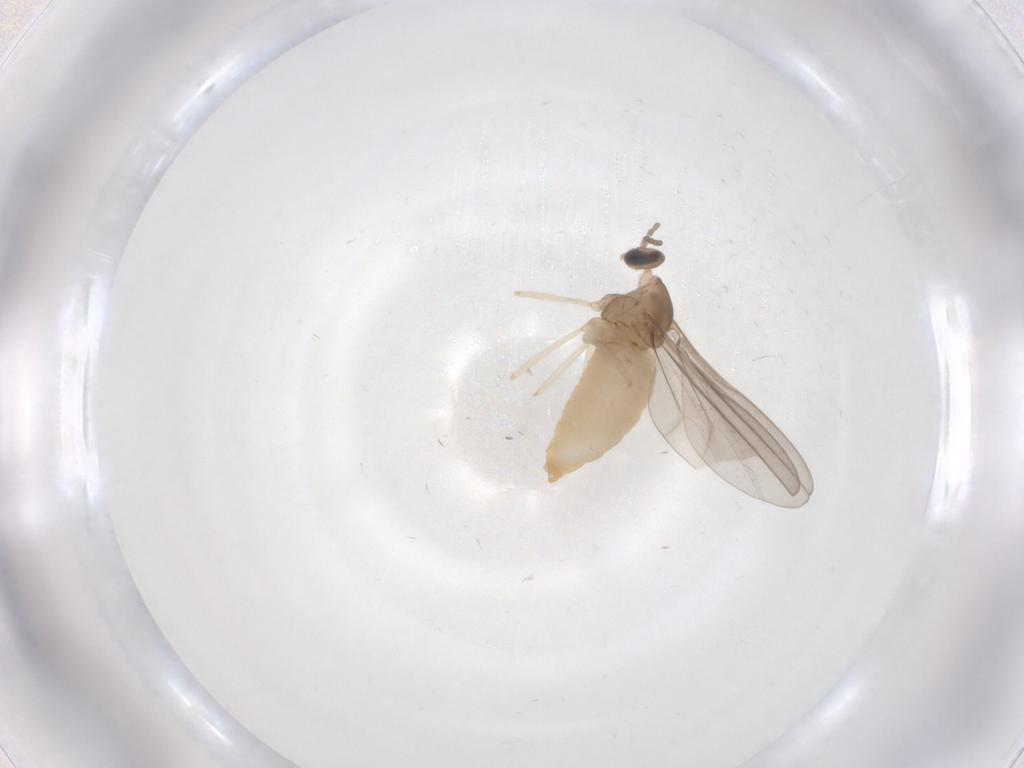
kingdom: Animalia
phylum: Arthropoda
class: Insecta
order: Diptera
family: Cecidomyiidae
